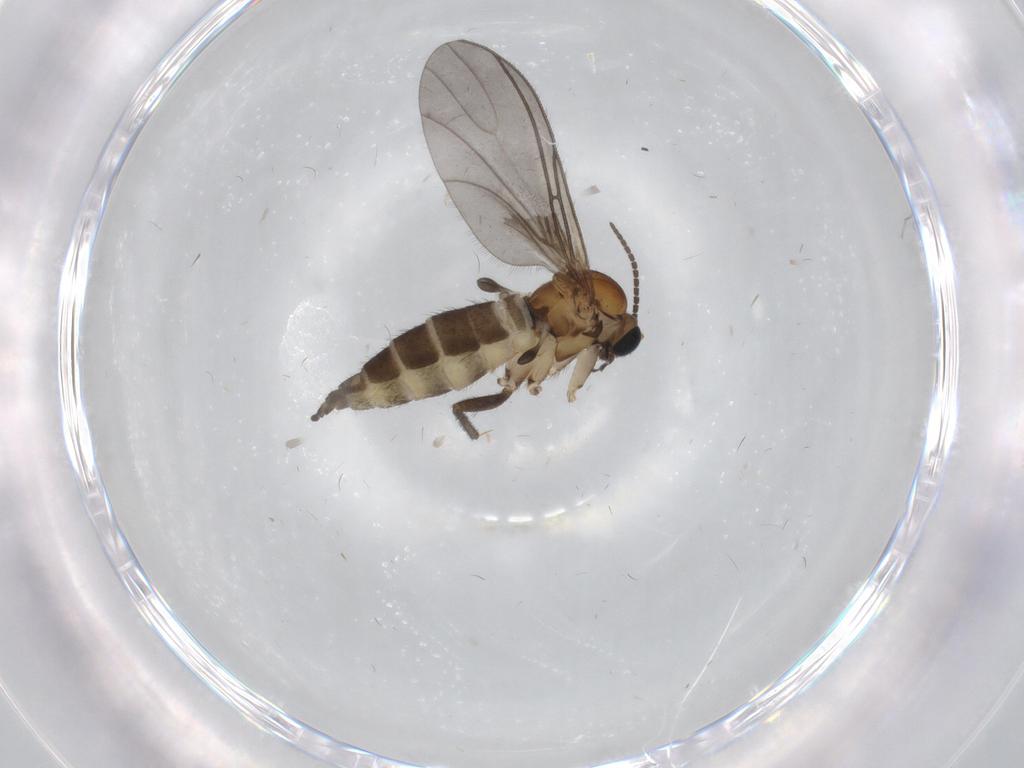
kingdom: Animalia
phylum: Arthropoda
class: Insecta
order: Diptera
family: Sciaridae
